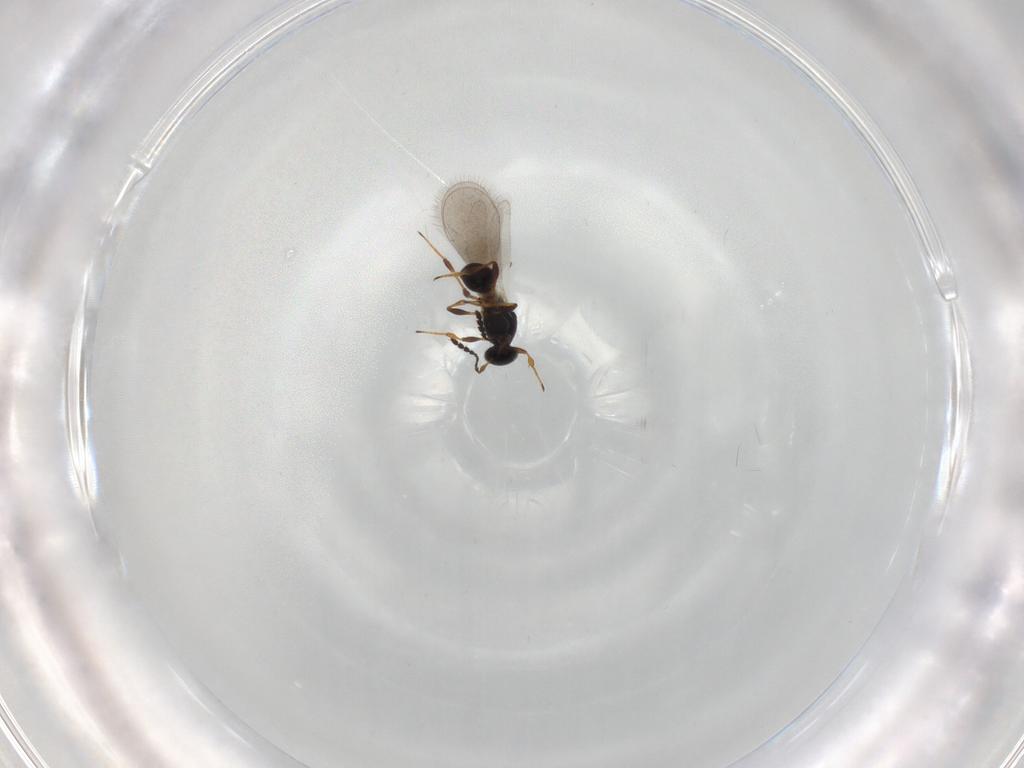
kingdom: Animalia
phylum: Arthropoda
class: Insecta
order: Hymenoptera
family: Platygastridae
